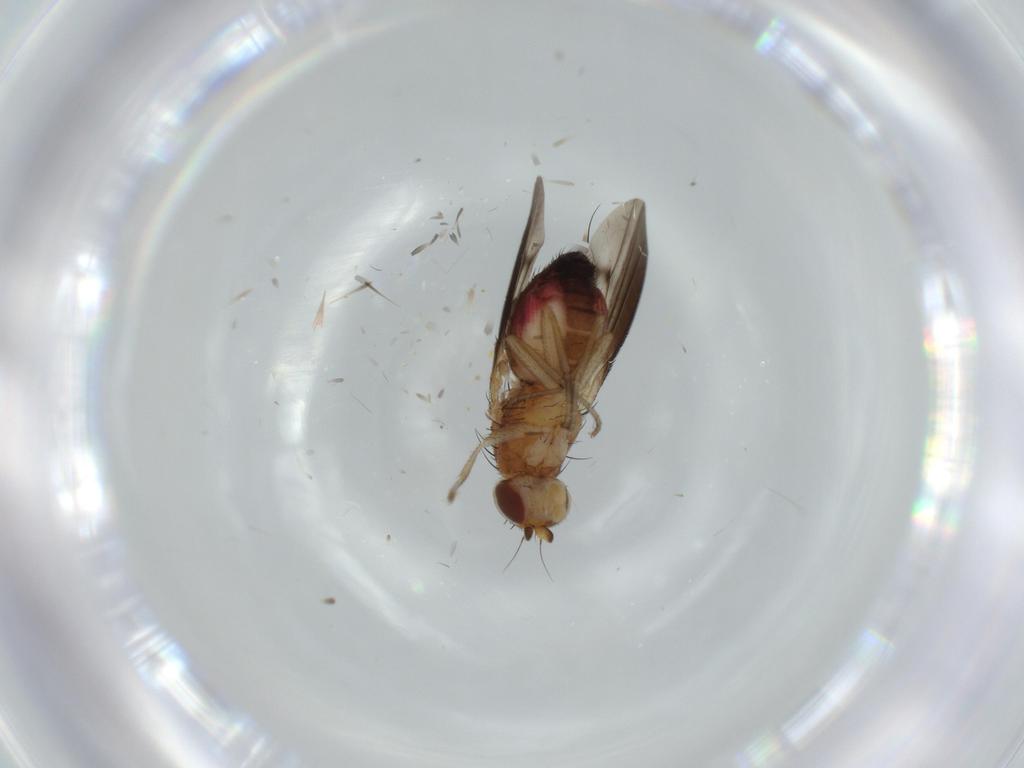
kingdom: Animalia
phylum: Arthropoda
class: Insecta
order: Diptera
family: Heleomyzidae
